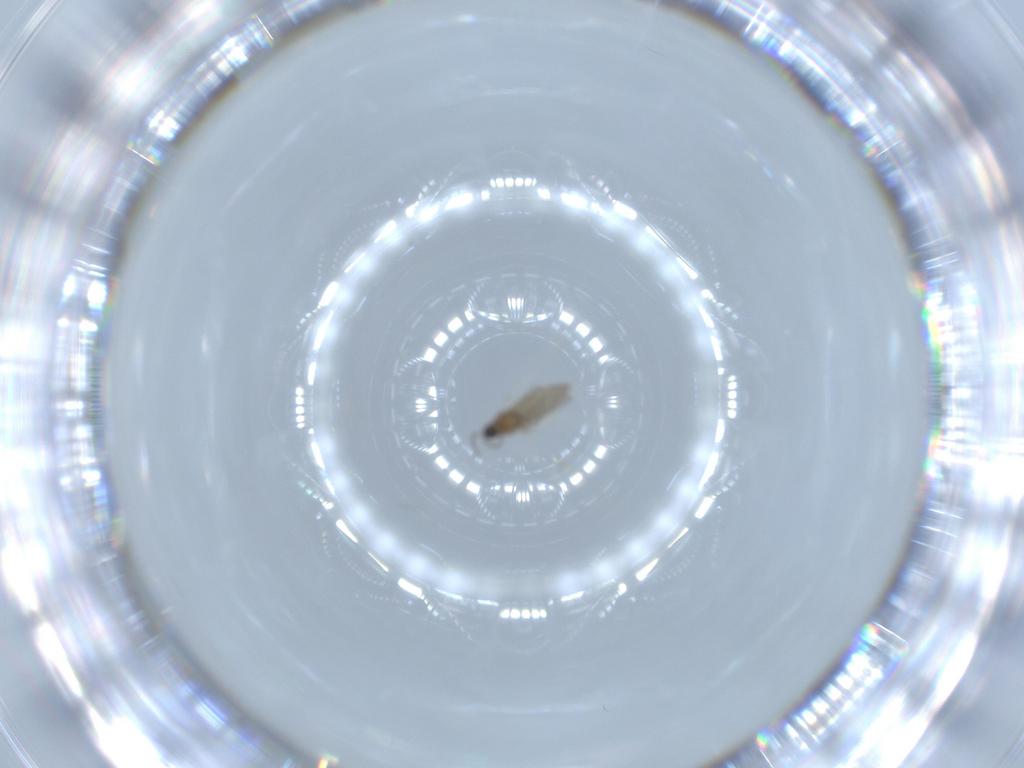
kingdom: Animalia
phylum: Arthropoda
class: Insecta
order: Diptera
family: Cecidomyiidae
